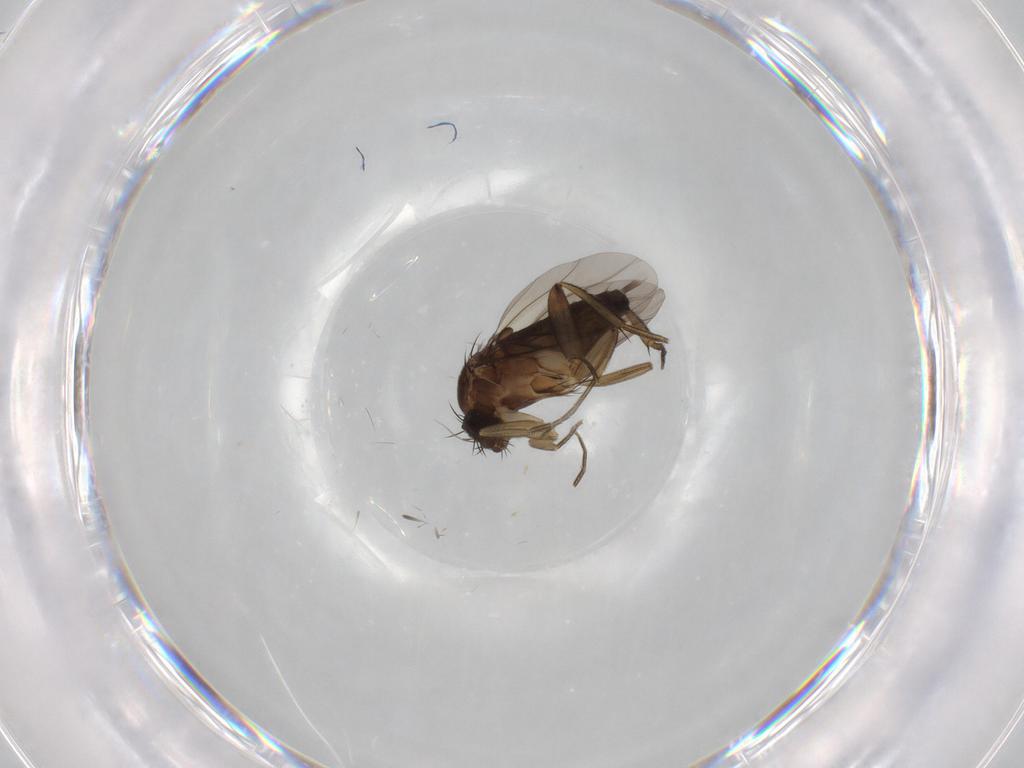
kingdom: Animalia
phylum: Arthropoda
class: Insecta
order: Diptera
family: Phoridae
